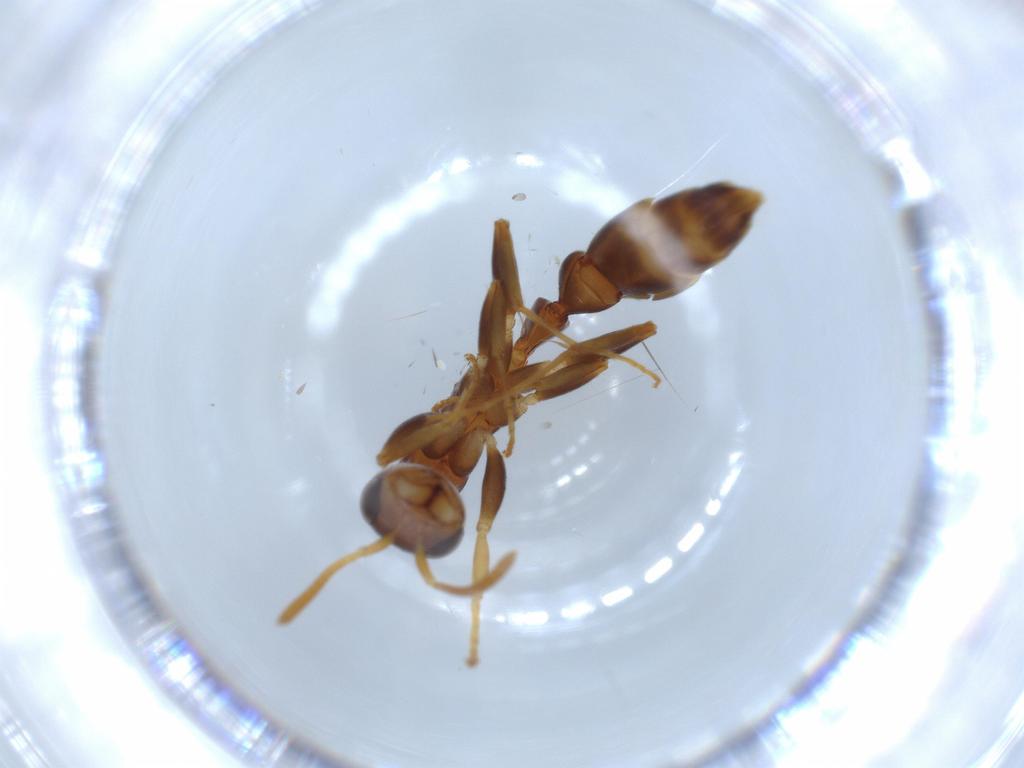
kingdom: Animalia
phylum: Arthropoda
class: Insecta
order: Hymenoptera
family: Formicidae
